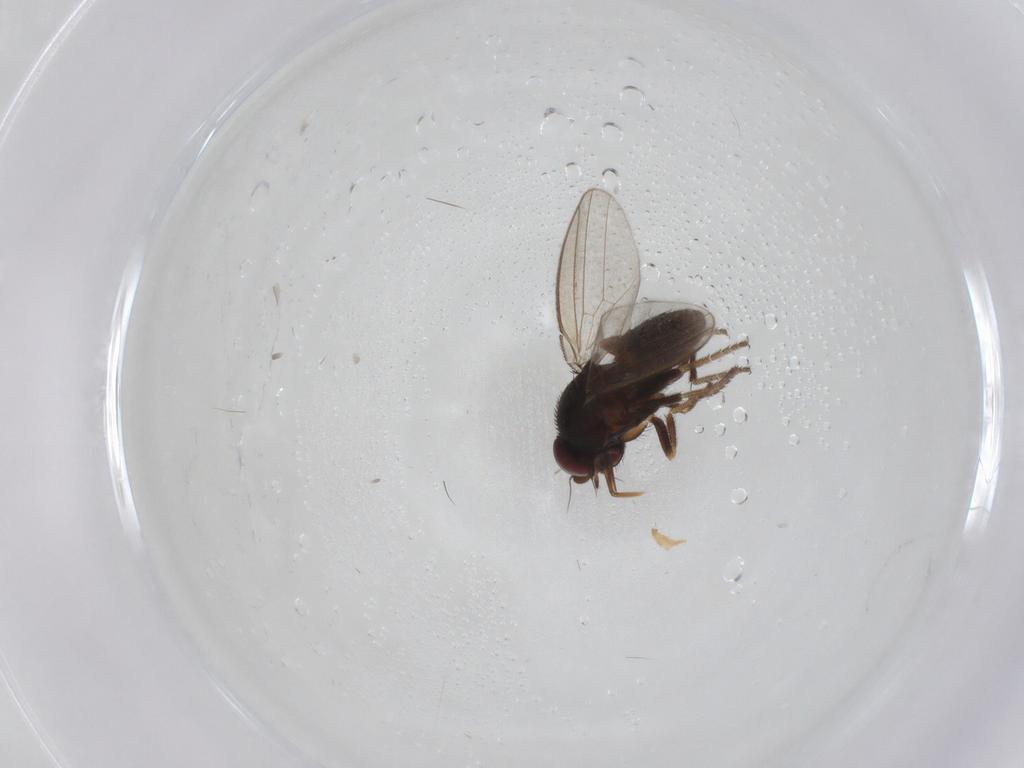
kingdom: Animalia
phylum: Arthropoda
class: Insecta
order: Diptera
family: Milichiidae
